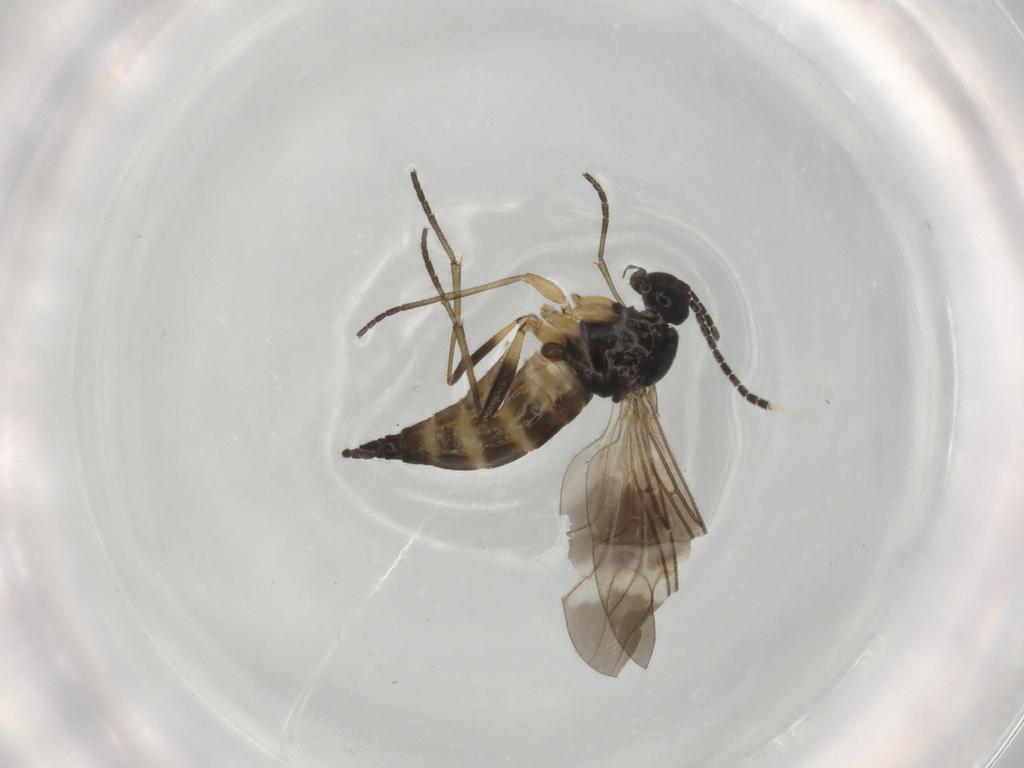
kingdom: Animalia
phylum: Arthropoda
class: Insecta
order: Diptera
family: Sciaridae
